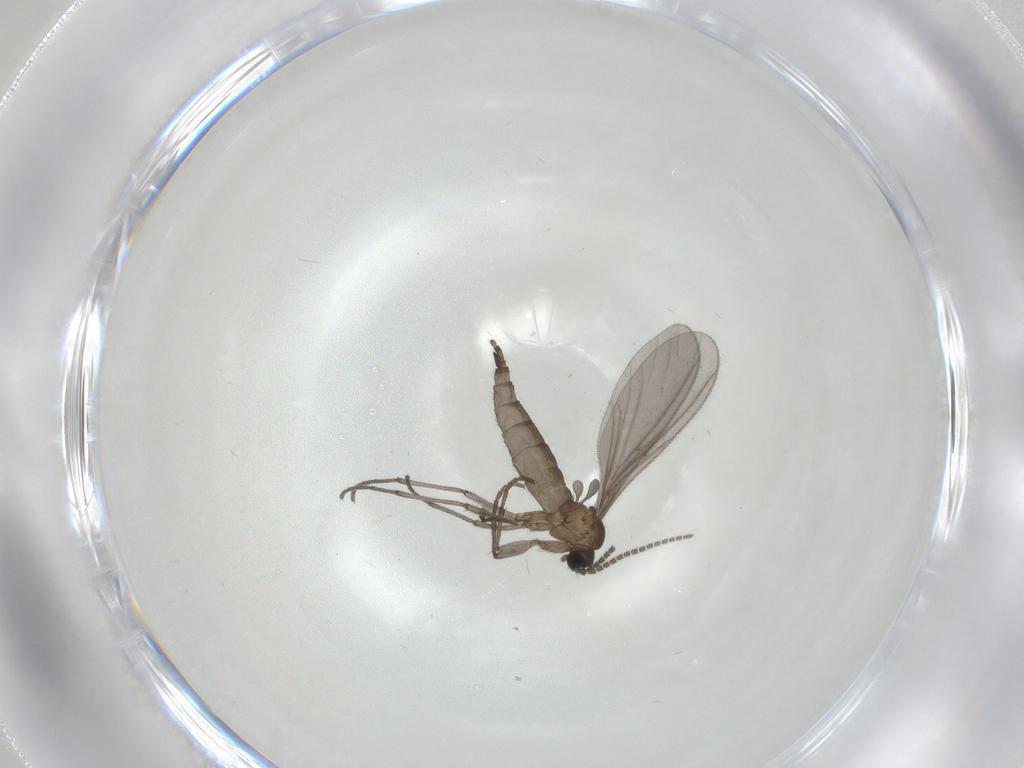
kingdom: Animalia
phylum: Arthropoda
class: Insecta
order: Diptera
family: Sciaridae
